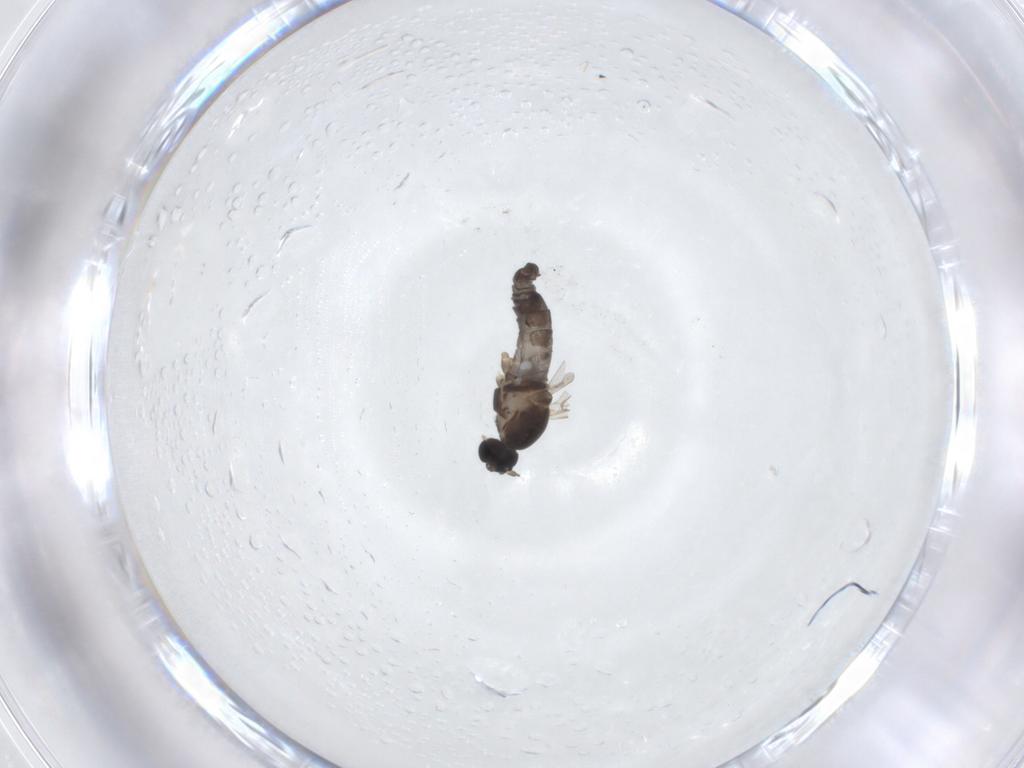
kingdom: Animalia
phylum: Arthropoda
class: Insecta
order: Diptera
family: Cecidomyiidae
